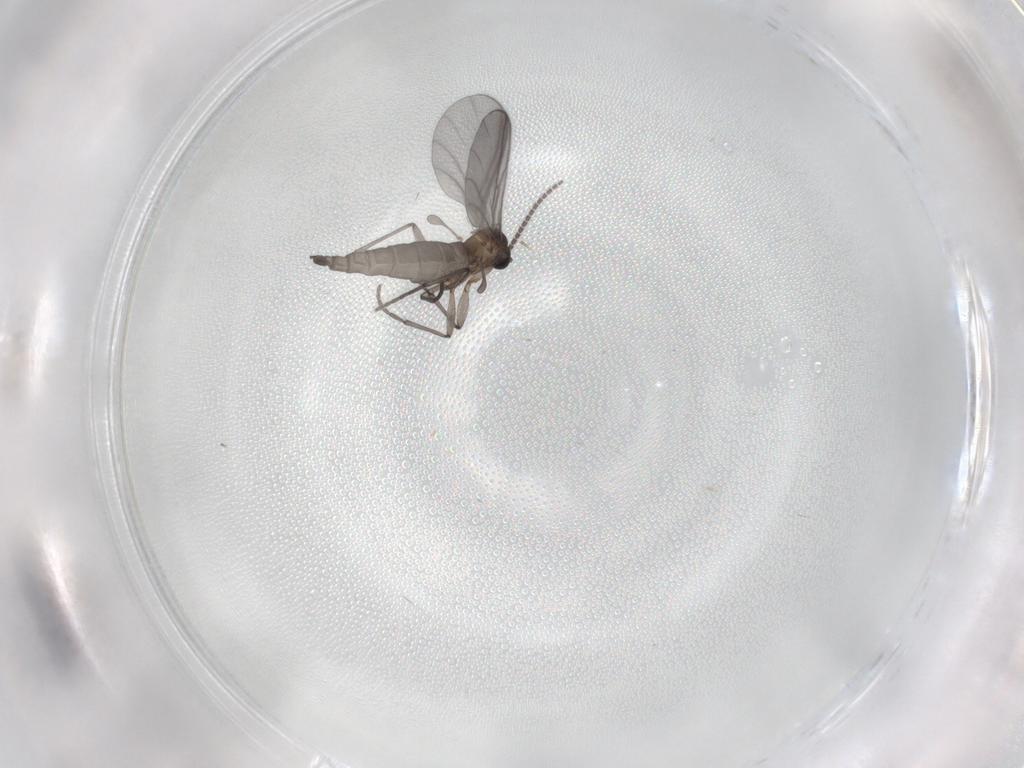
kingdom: Animalia
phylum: Arthropoda
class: Insecta
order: Diptera
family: Sciaridae
